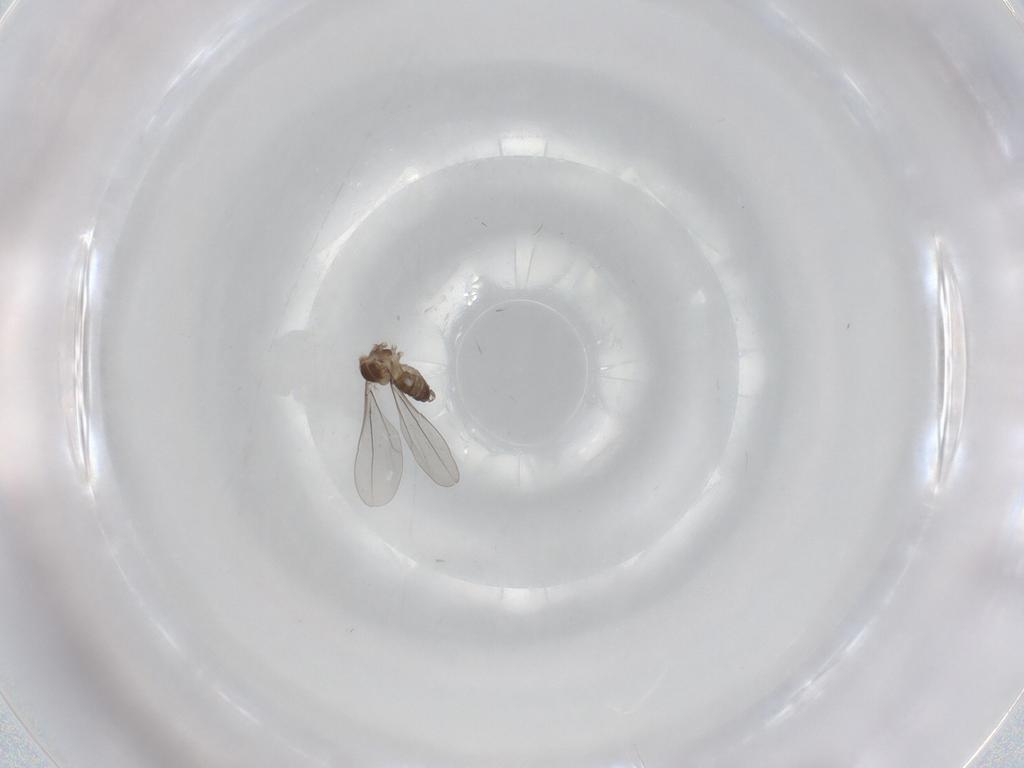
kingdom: Animalia
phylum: Arthropoda
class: Insecta
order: Diptera
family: Cecidomyiidae
